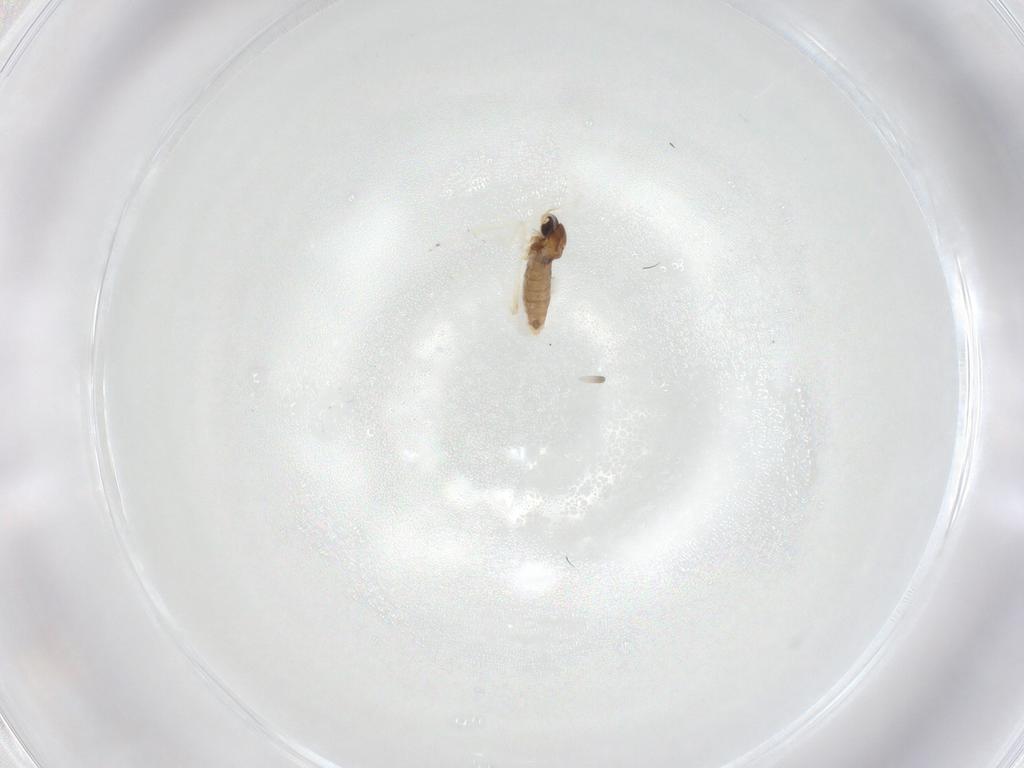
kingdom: Animalia
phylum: Arthropoda
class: Insecta
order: Diptera
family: Cecidomyiidae
